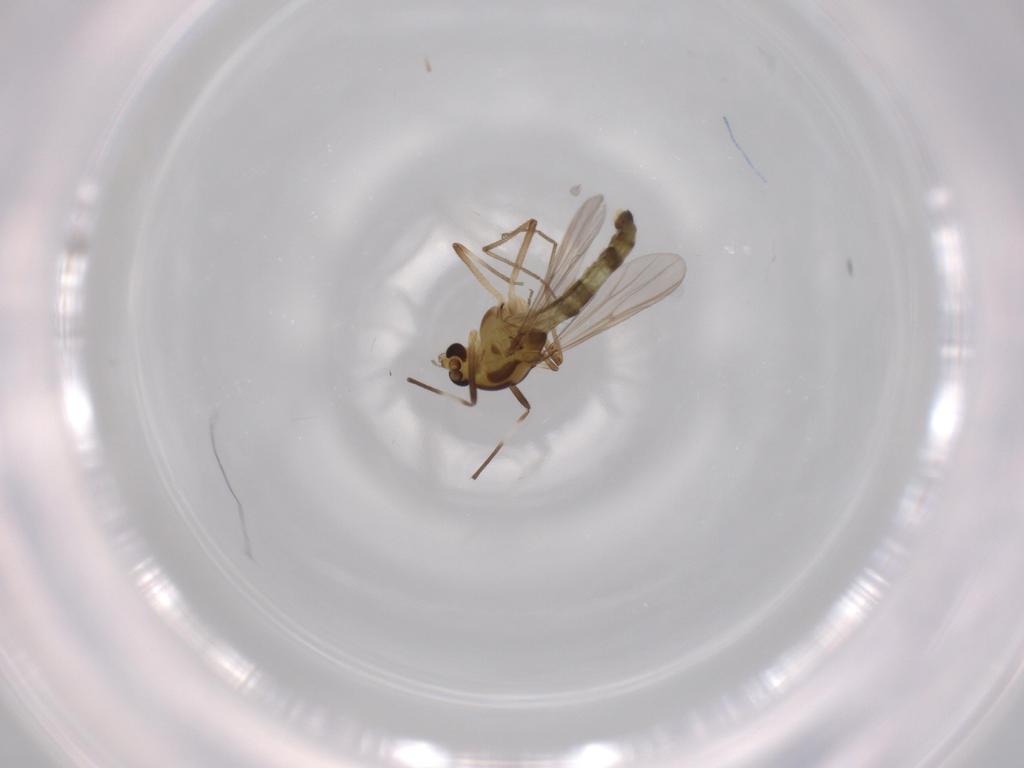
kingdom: Animalia
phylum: Arthropoda
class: Insecta
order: Diptera
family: Chironomidae
